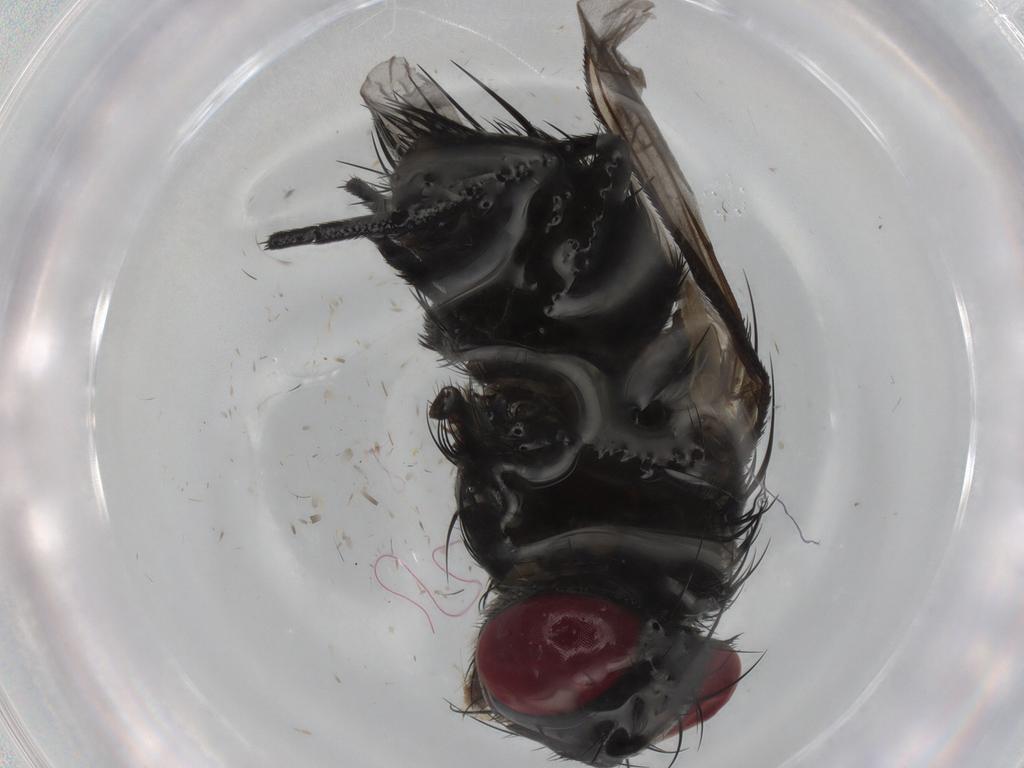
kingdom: Animalia
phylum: Arthropoda
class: Insecta
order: Diptera
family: Tachinidae
